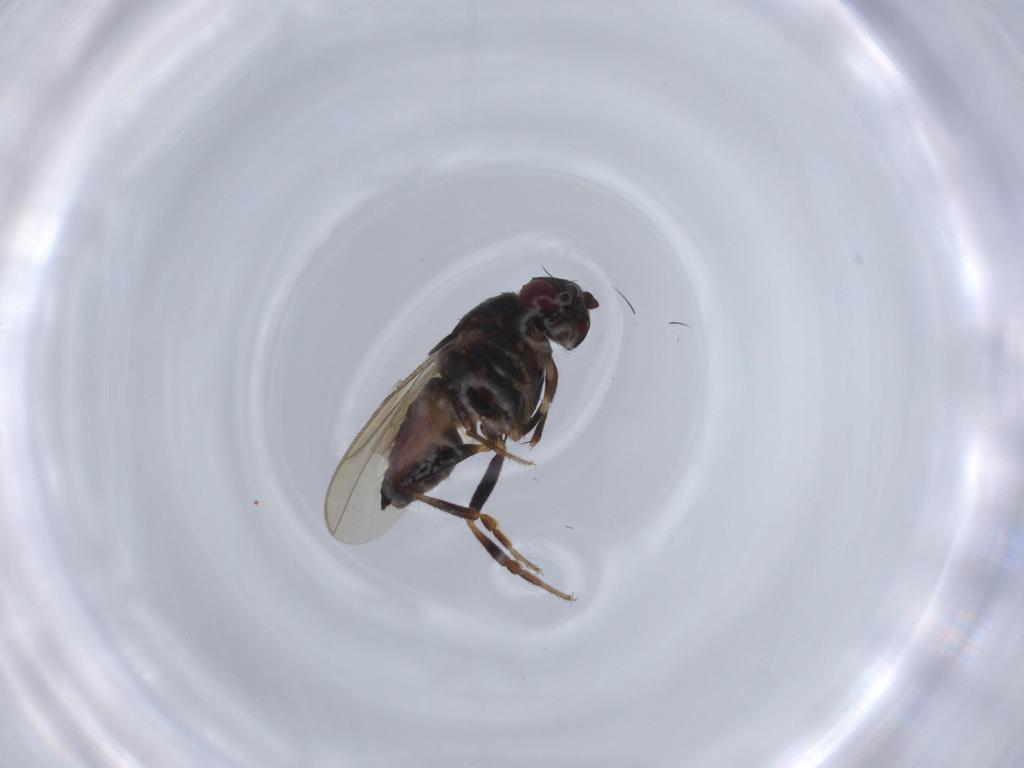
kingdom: Animalia
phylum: Arthropoda
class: Insecta
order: Diptera
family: Sphaeroceridae
